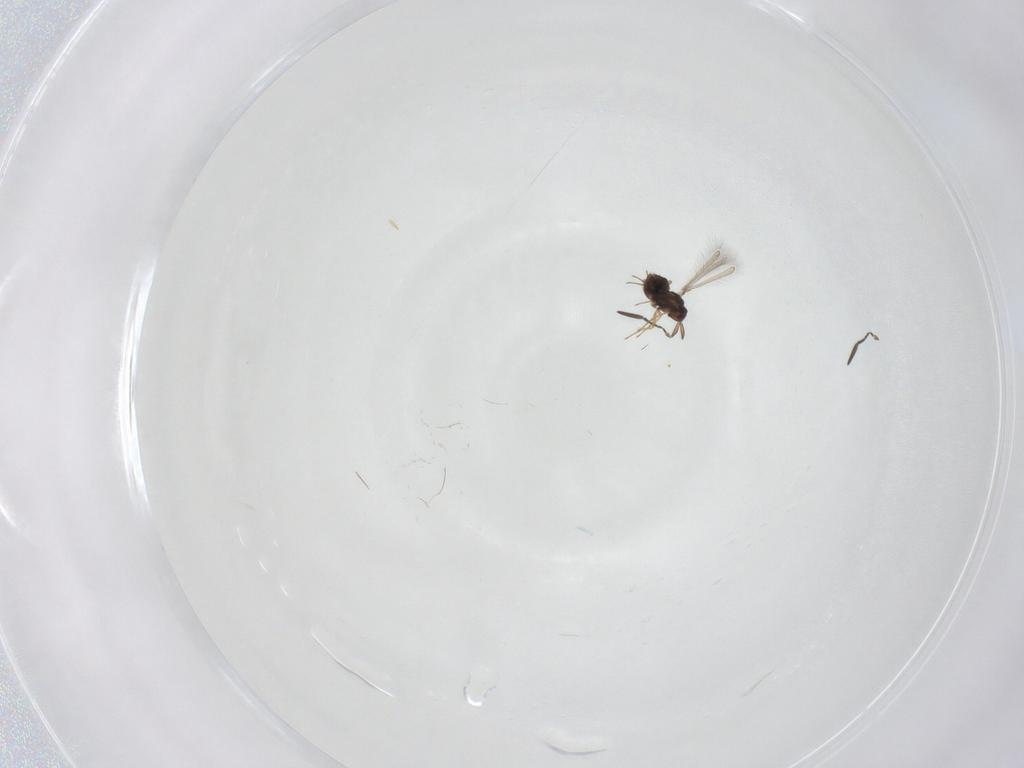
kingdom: Animalia
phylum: Arthropoda
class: Insecta
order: Hymenoptera
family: Mymaridae
